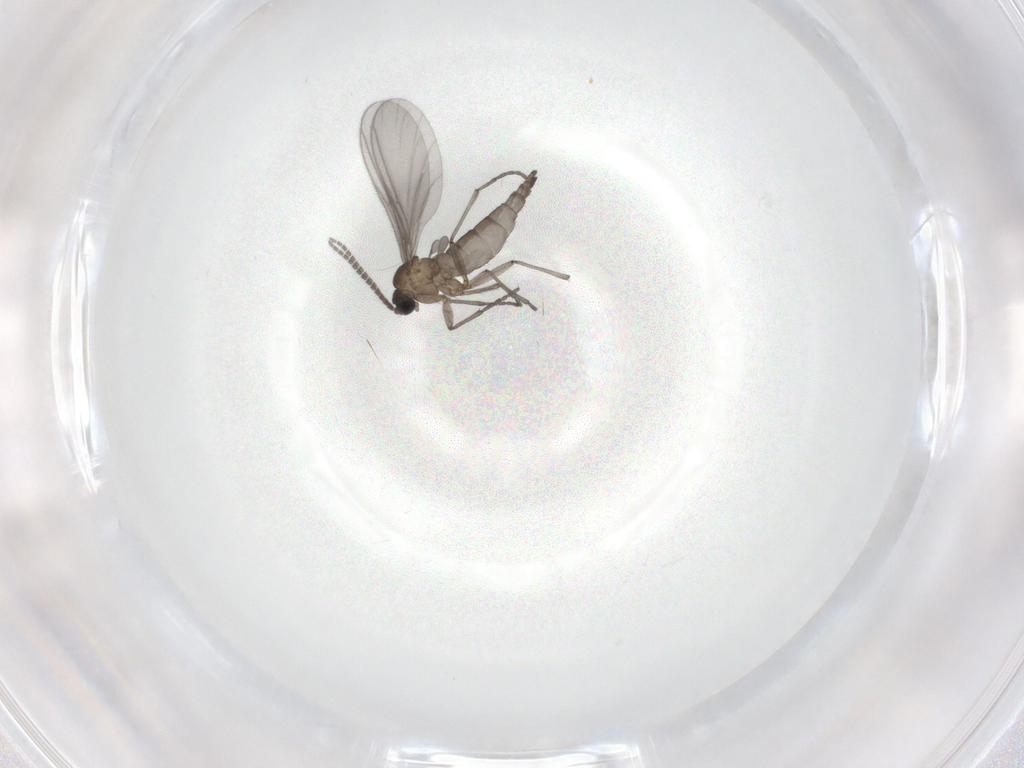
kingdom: Animalia
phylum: Arthropoda
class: Insecta
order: Diptera
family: Sciaridae
